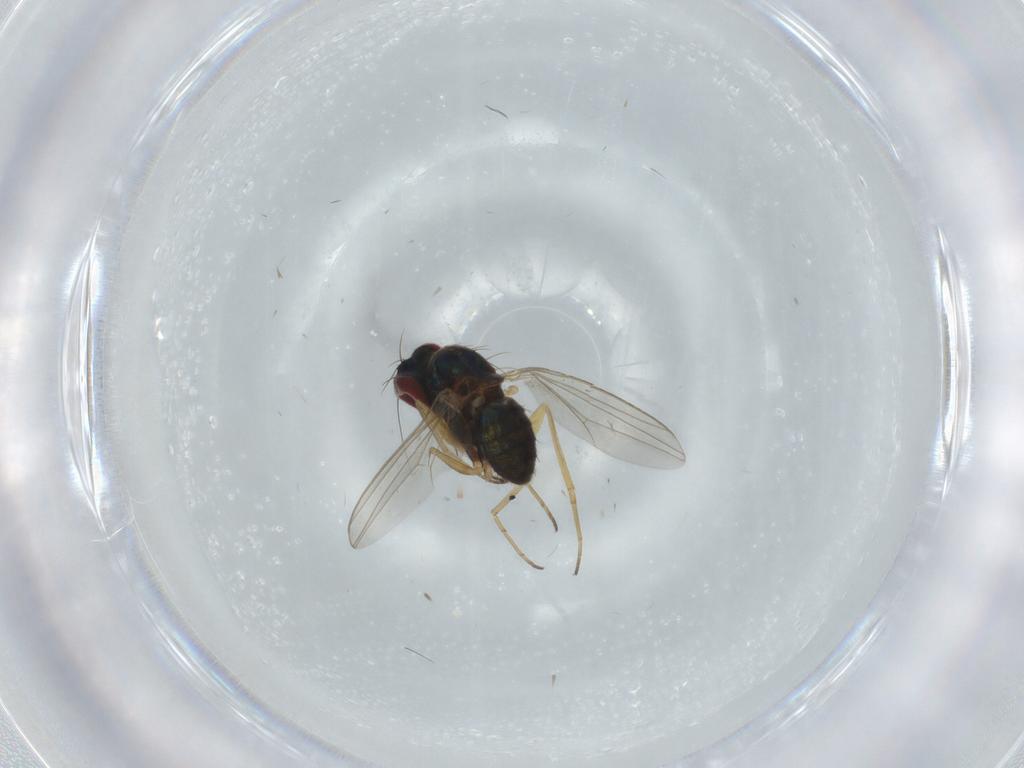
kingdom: Animalia
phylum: Arthropoda
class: Insecta
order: Diptera
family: Dolichopodidae
